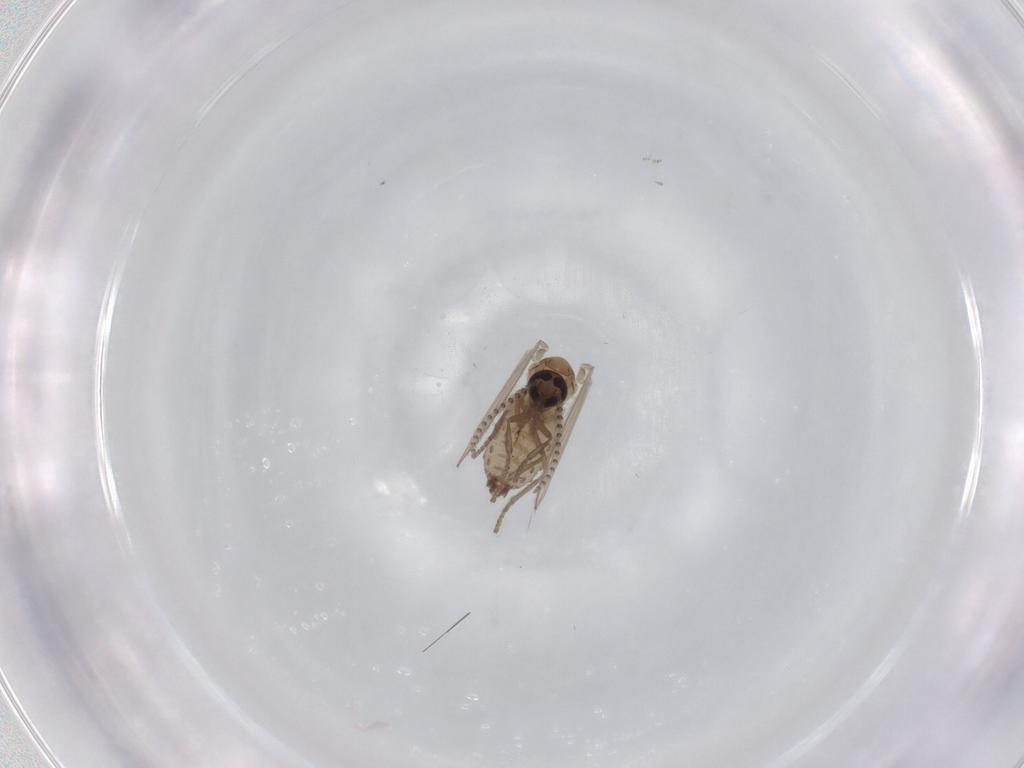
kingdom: Animalia
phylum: Arthropoda
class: Insecta
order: Diptera
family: Psychodidae
